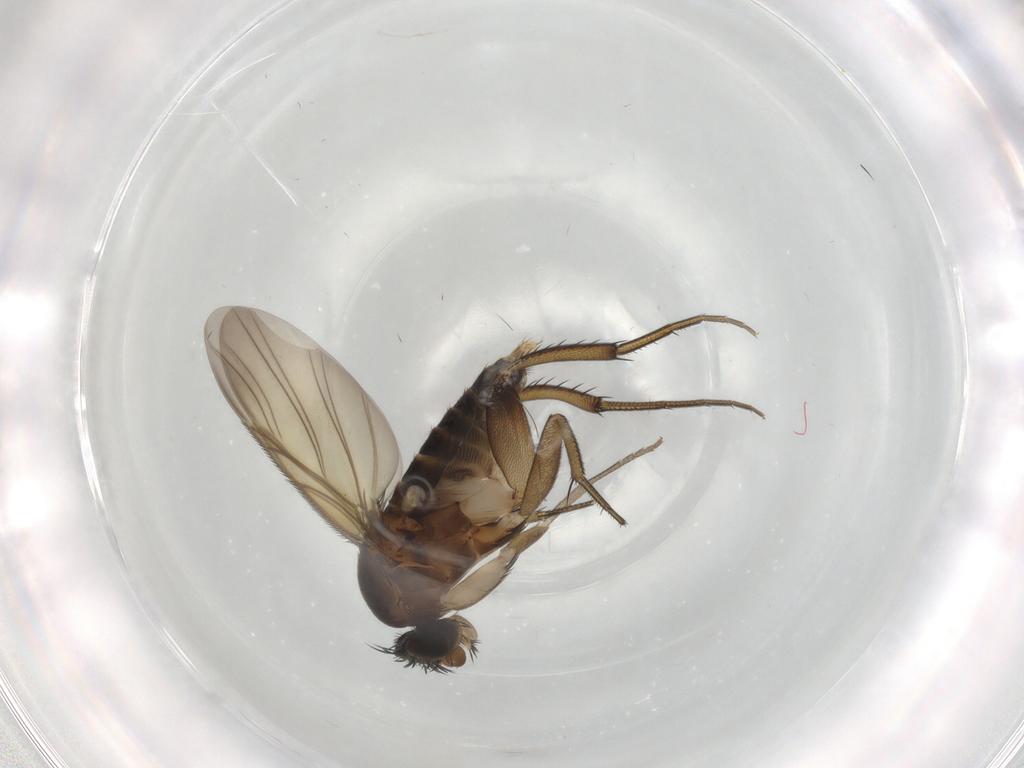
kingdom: Animalia
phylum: Arthropoda
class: Insecta
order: Diptera
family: Phoridae
